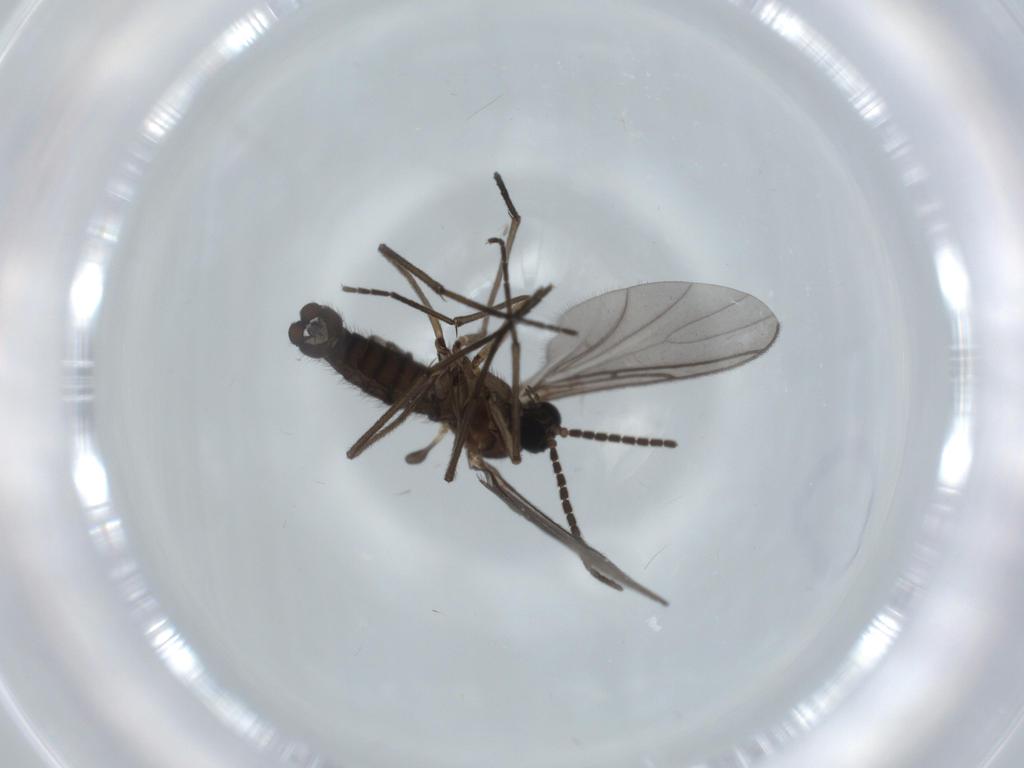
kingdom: Animalia
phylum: Arthropoda
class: Insecta
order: Diptera
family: Sciaridae
